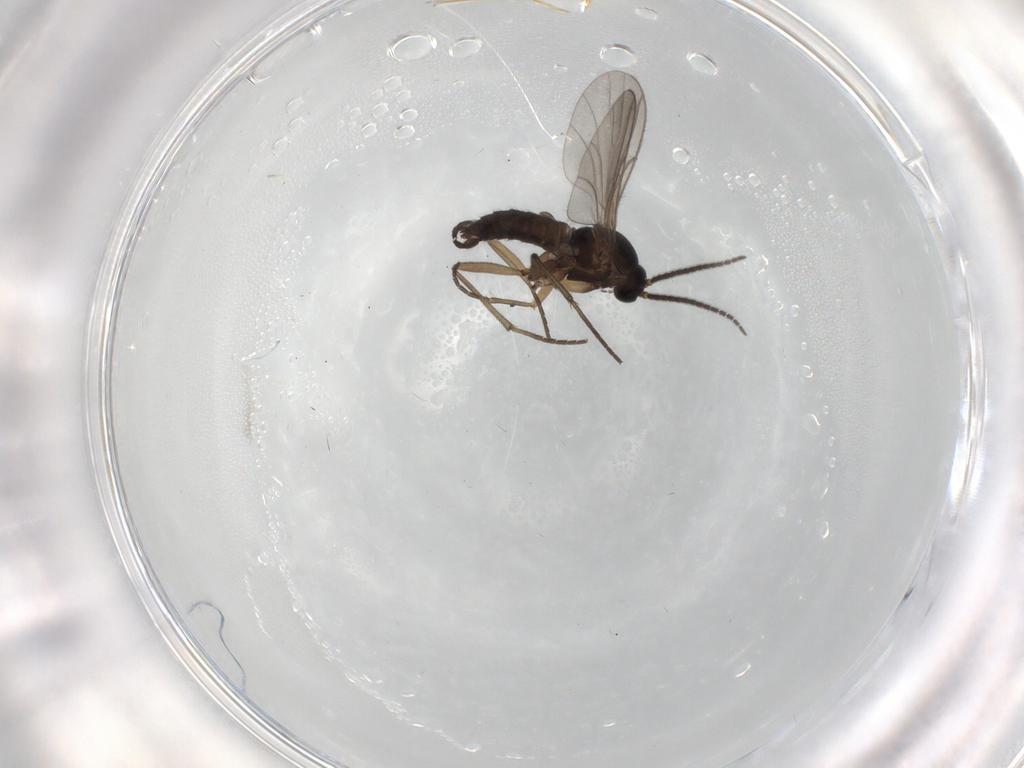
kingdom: Animalia
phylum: Arthropoda
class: Insecta
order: Diptera
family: Sciaridae
